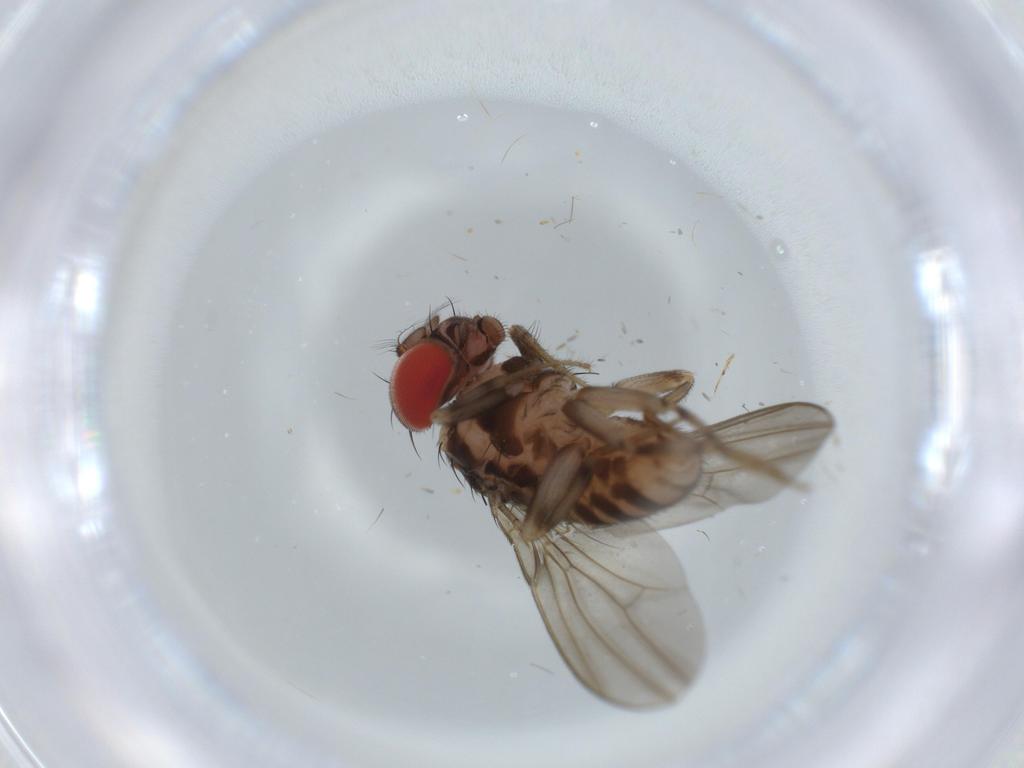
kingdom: Animalia
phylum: Arthropoda
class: Insecta
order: Diptera
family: Drosophilidae
